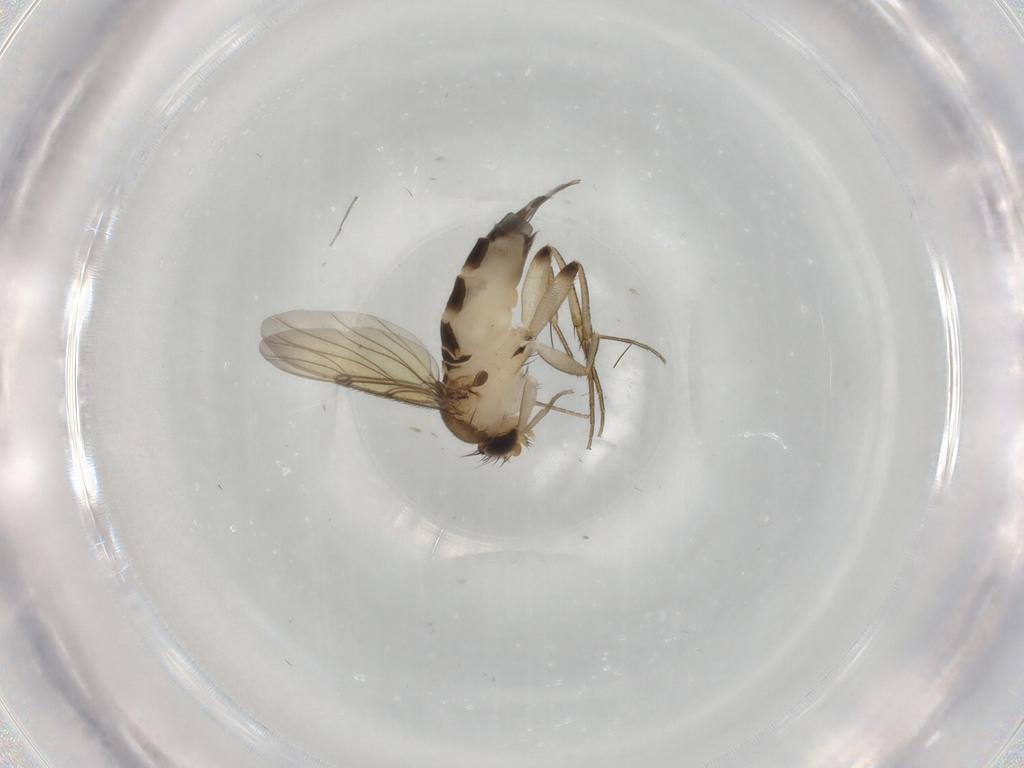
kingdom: Animalia
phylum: Arthropoda
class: Insecta
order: Diptera
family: Phoridae
